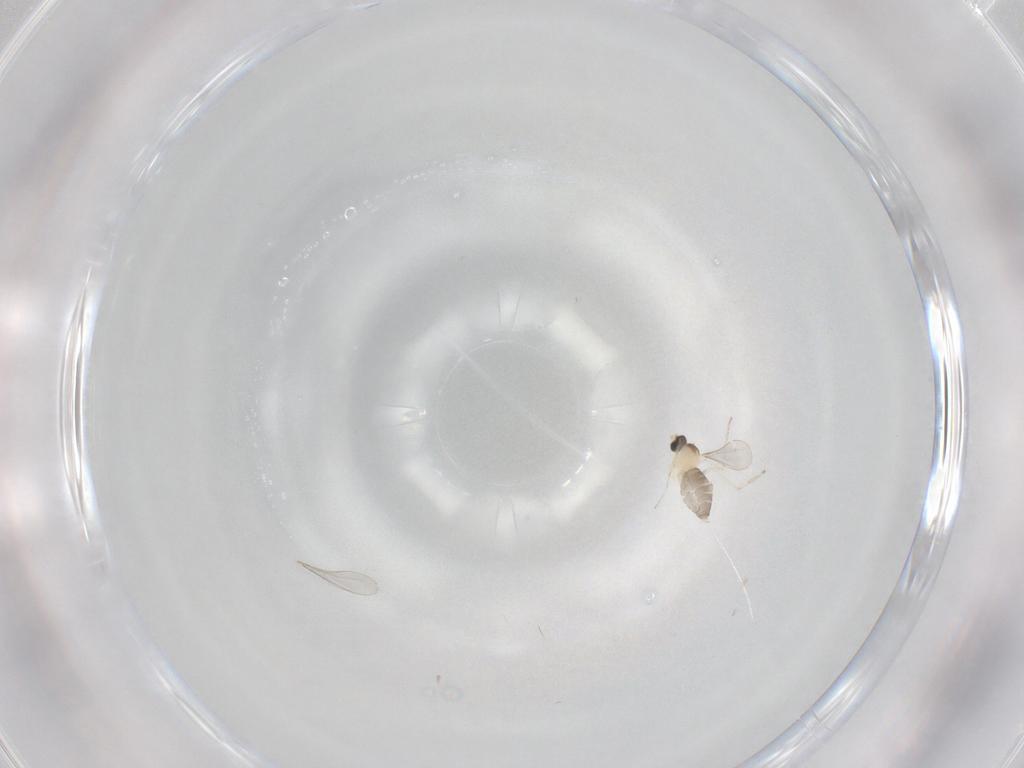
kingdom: Animalia
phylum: Arthropoda
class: Insecta
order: Diptera
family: Cecidomyiidae
